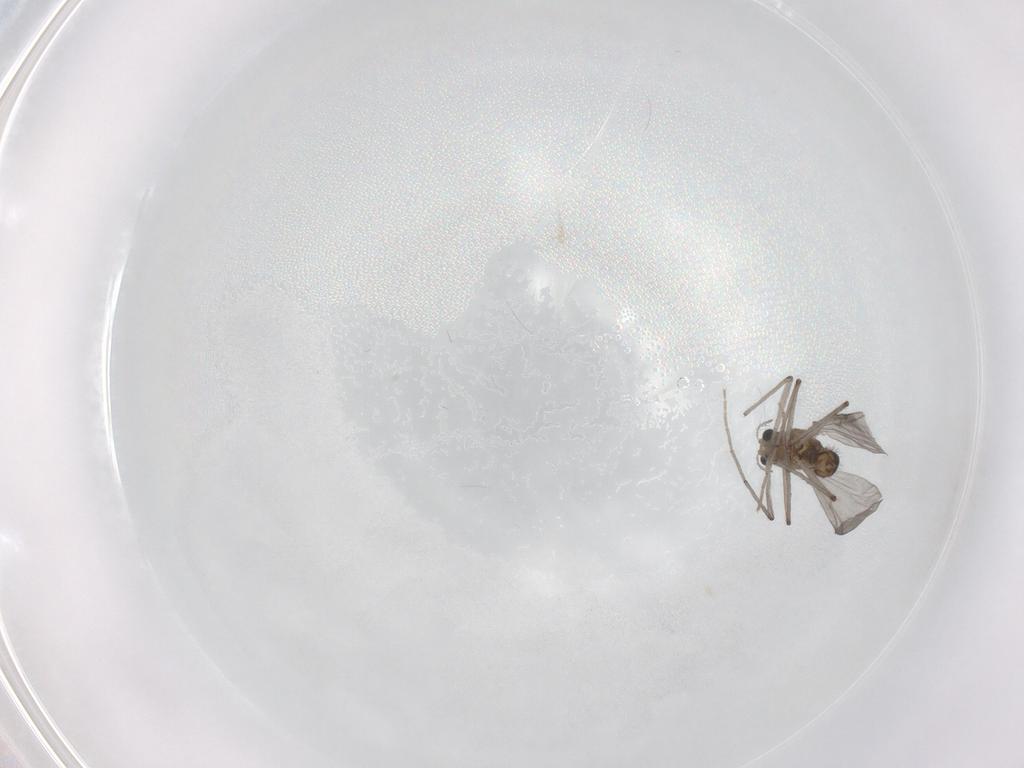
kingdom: Animalia
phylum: Arthropoda
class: Insecta
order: Diptera
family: Chironomidae
